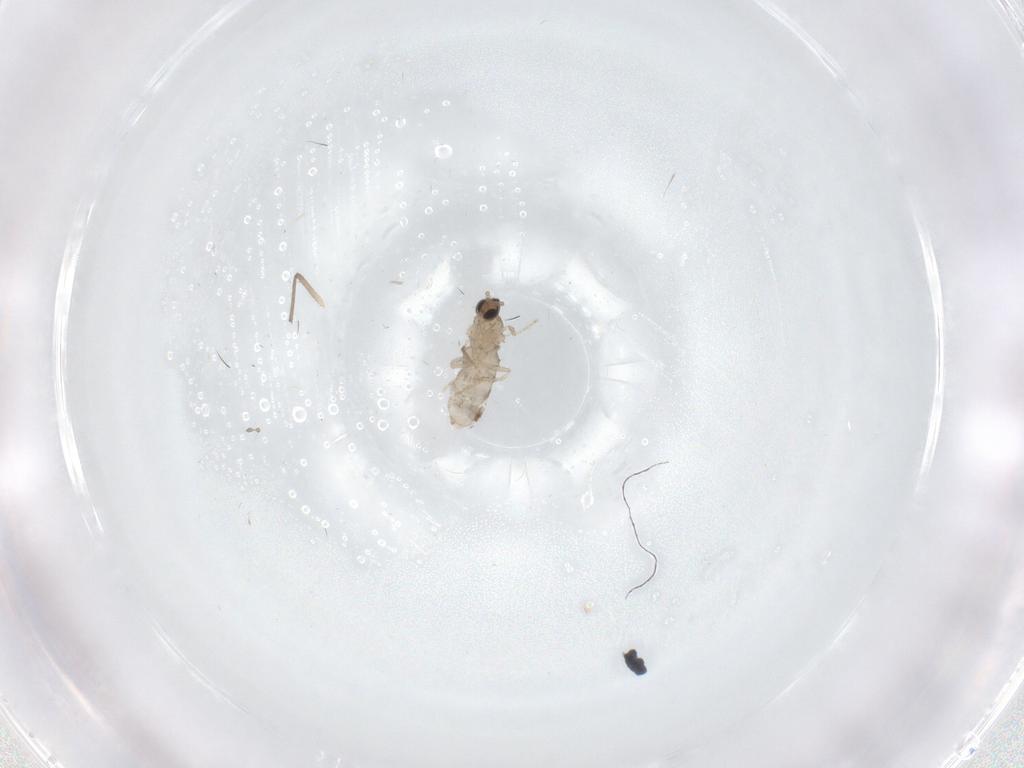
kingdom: Animalia
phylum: Arthropoda
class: Insecta
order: Diptera
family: Cecidomyiidae
